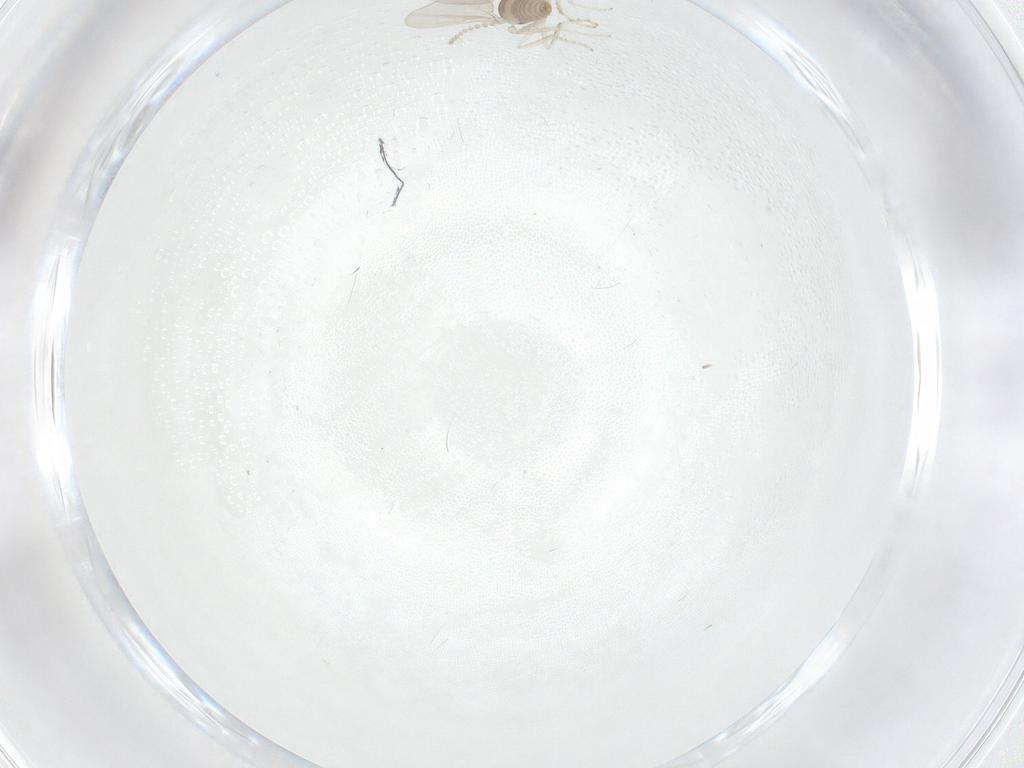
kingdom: Animalia
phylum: Arthropoda
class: Insecta
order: Diptera
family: Cecidomyiidae
